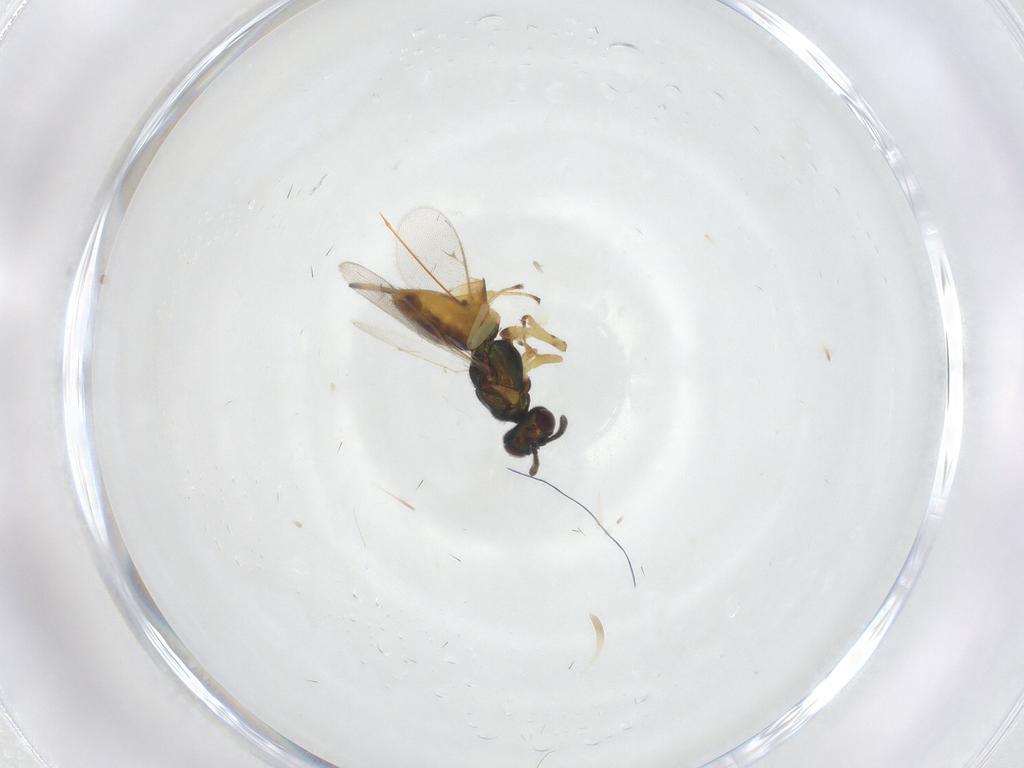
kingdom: Animalia
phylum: Arthropoda
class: Insecta
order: Hymenoptera
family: Eupelmidae
